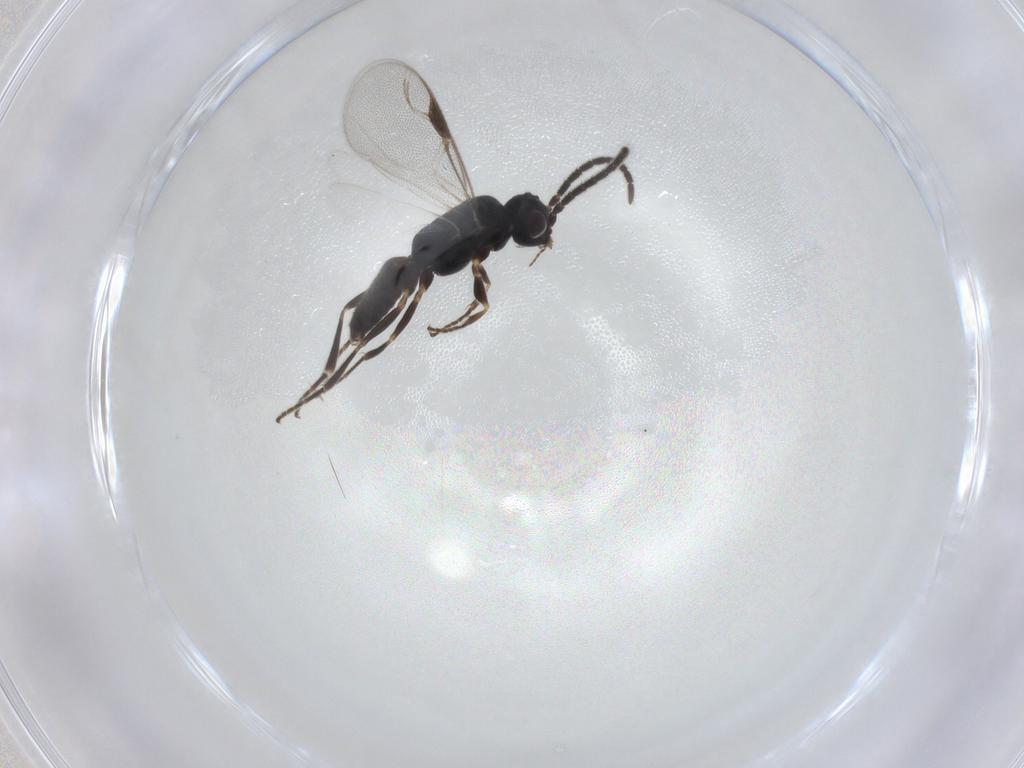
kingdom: Animalia
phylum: Arthropoda
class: Insecta
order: Hymenoptera
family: Dryinidae
